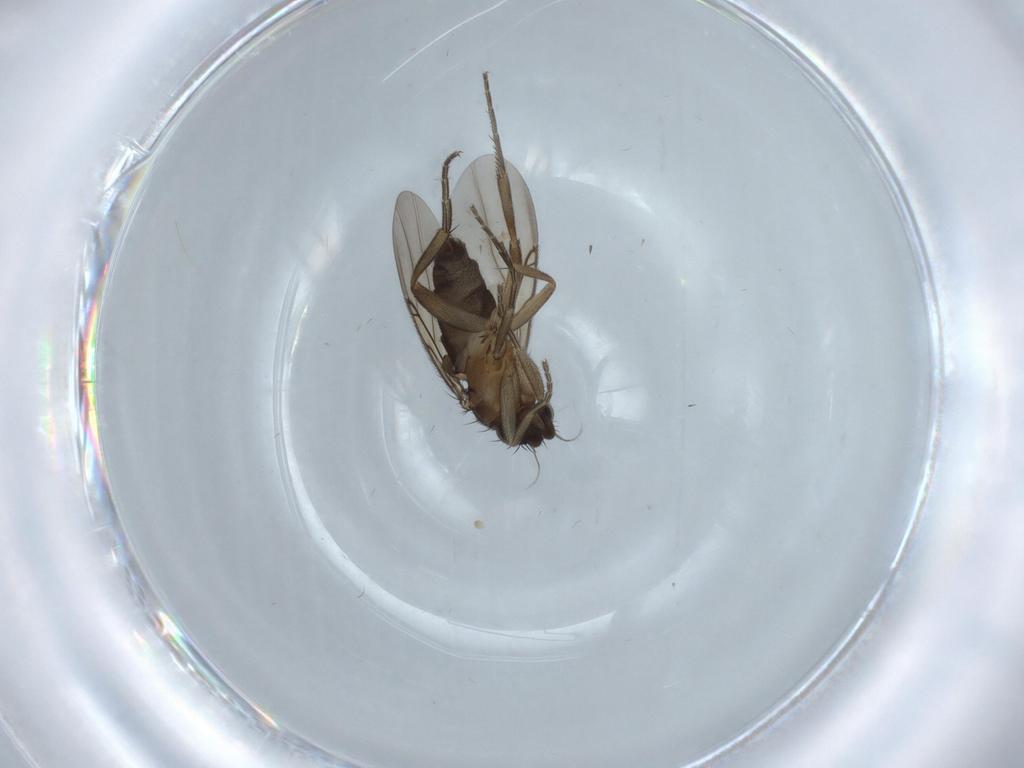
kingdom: Animalia
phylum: Arthropoda
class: Insecta
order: Diptera
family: Phoridae
